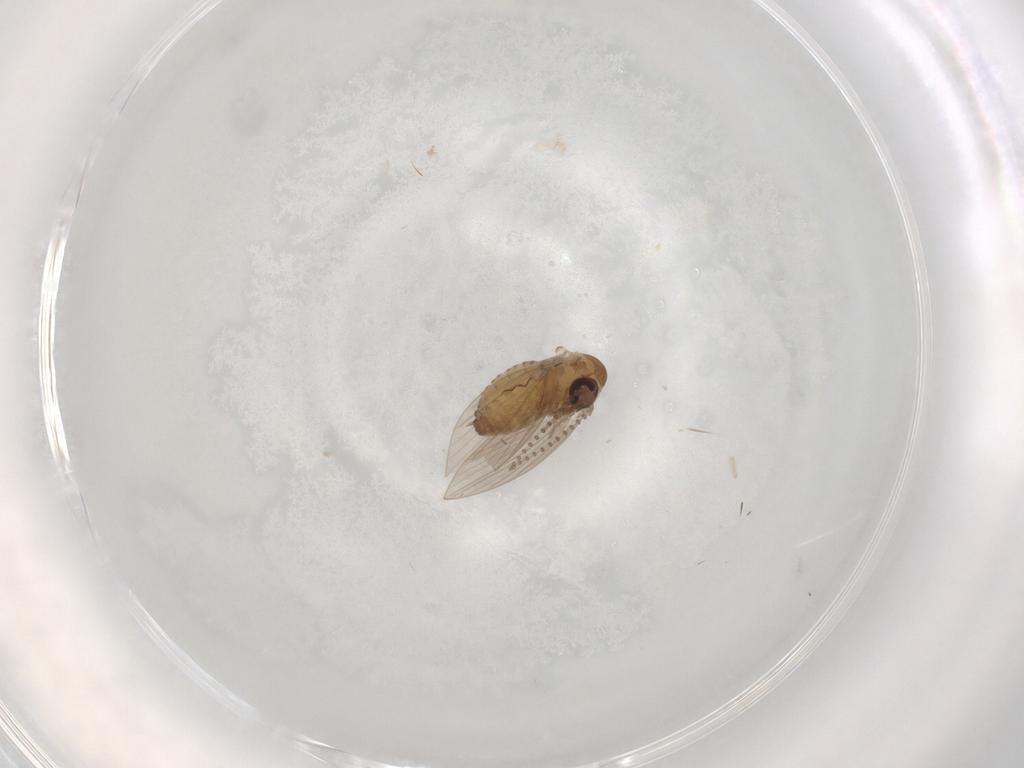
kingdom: Animalia
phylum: Arthropoda
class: Insecta
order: Diptera
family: Psychodidae
